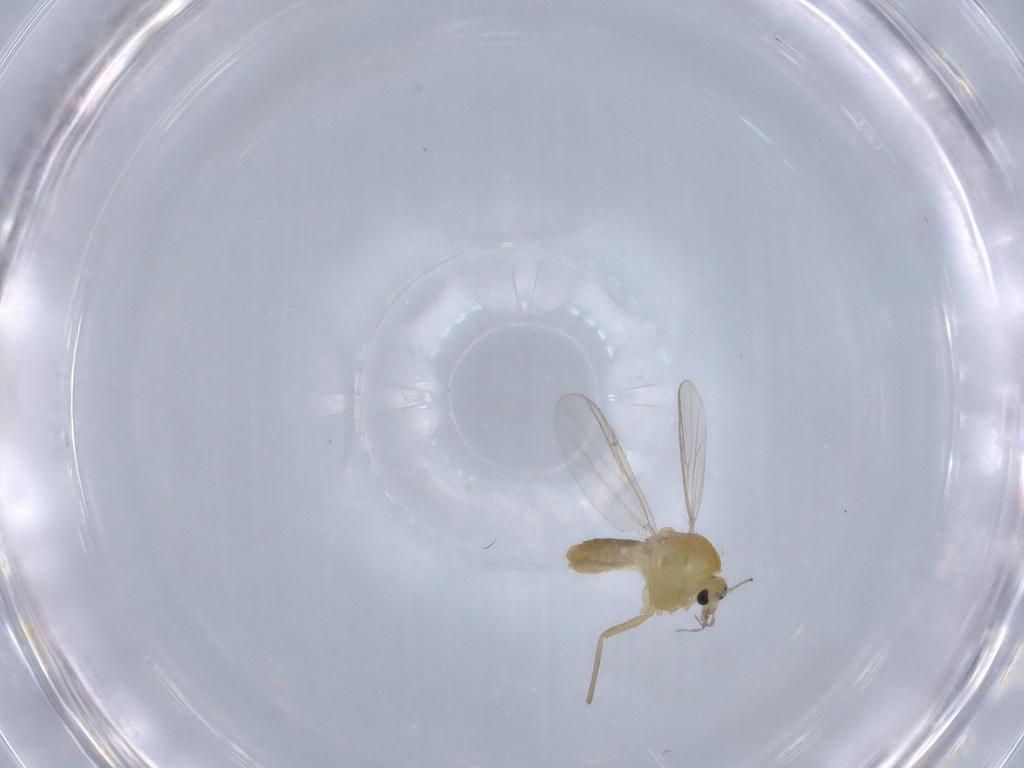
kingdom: Animalia
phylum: Arthropoda
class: Insecta
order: Diptera
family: Chironomidae
